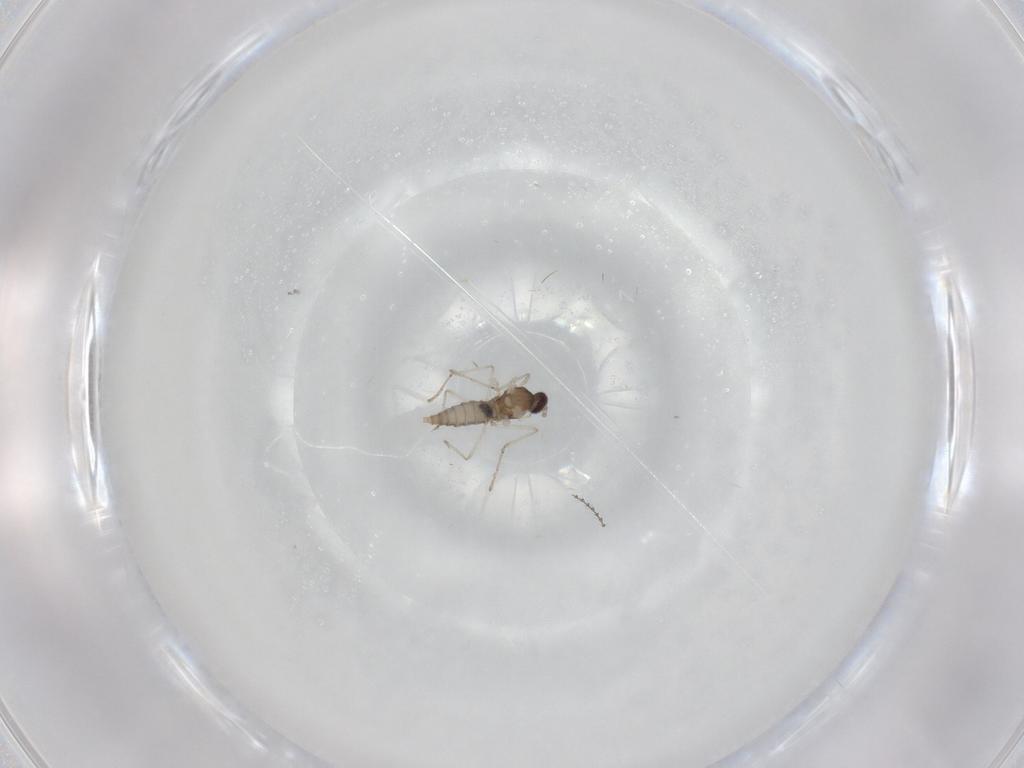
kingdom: Animalia
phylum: Arthropoda
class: Insecta
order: Diptera
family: Cecidomyiidae
